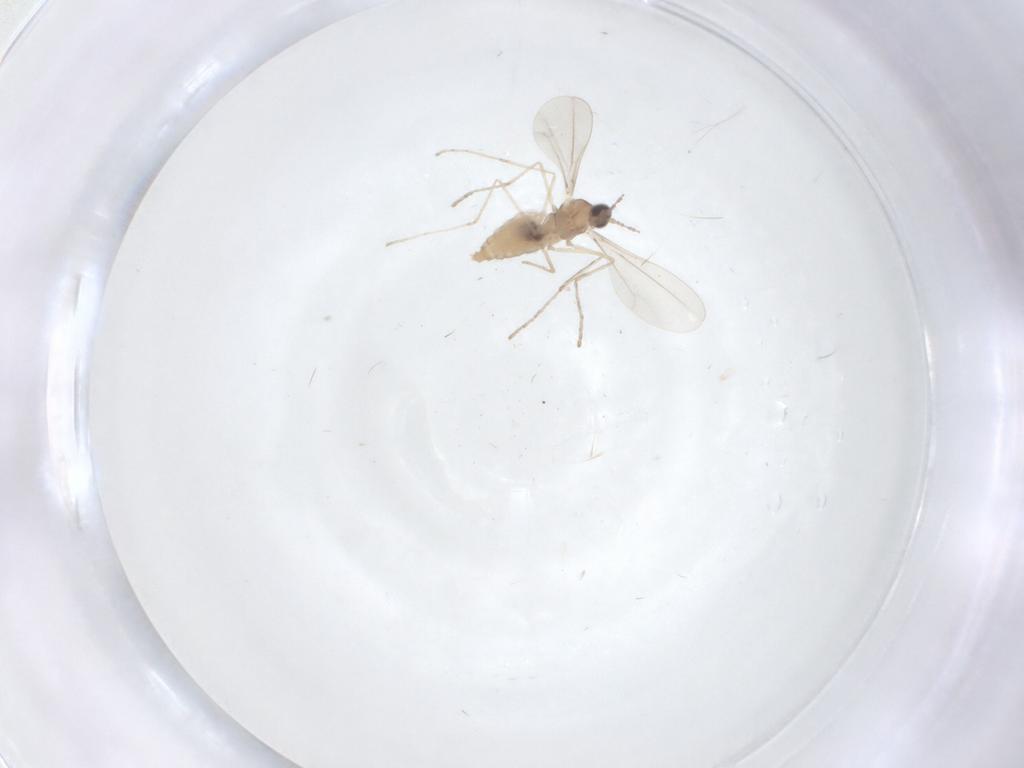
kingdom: Animalia
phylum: Arthropoda
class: Insecta
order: Diptera
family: Cecidomyiidae
